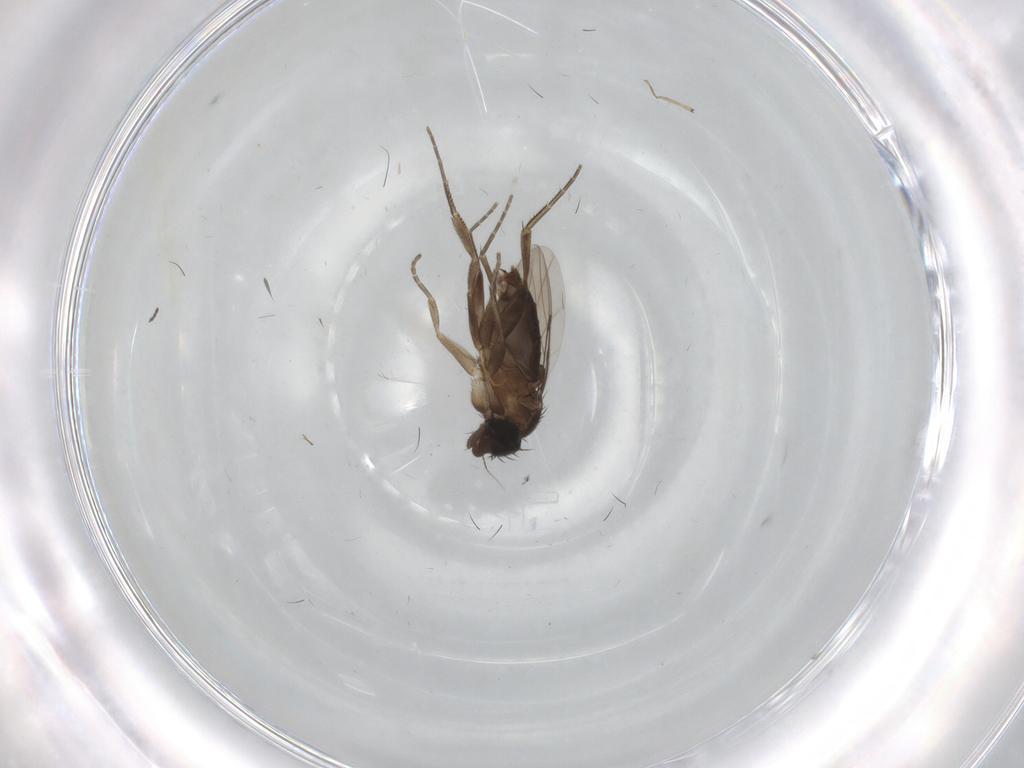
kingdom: Animalia
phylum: Arthropoda
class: Insecta
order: Diptera
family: Phoridae
